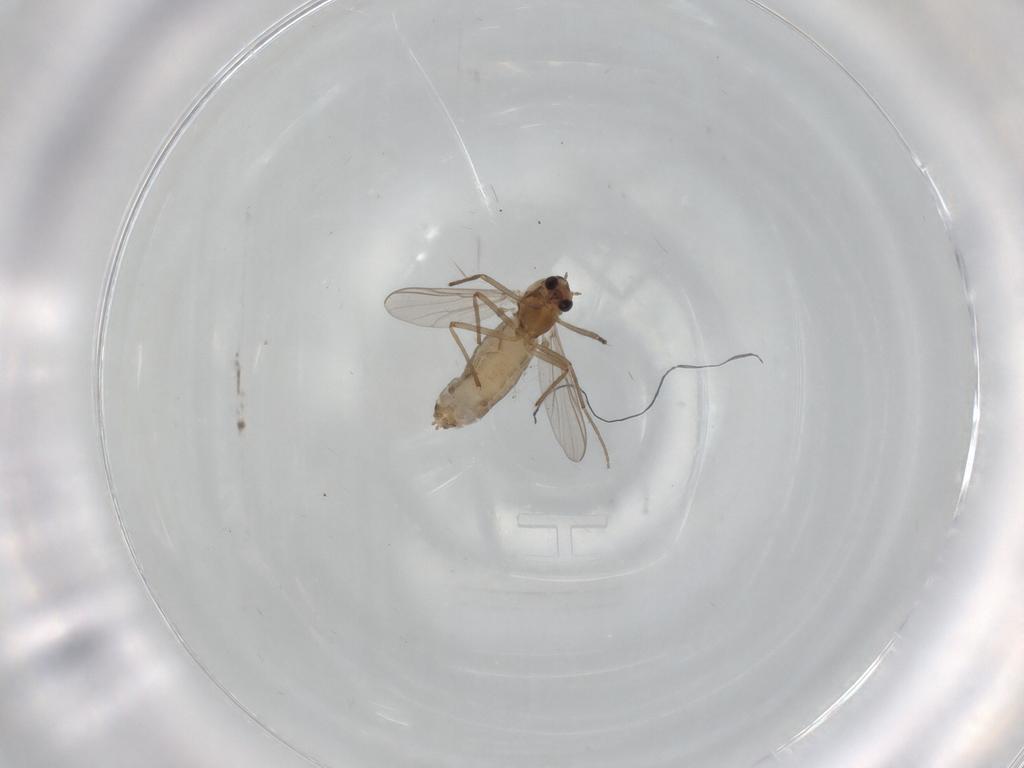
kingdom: Animalia
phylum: Arthropoda
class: Insecta
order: Diptera
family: Chironomidae
